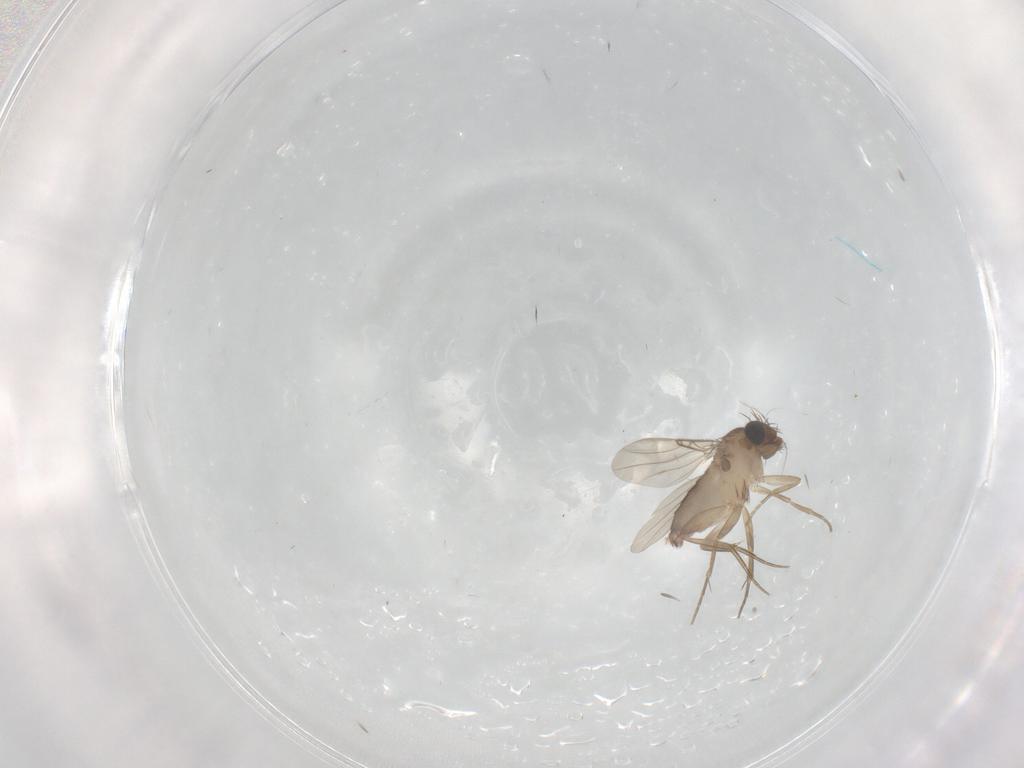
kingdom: Animalia
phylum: Arthropoda
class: Insecta
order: Diptera
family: Phoridae
